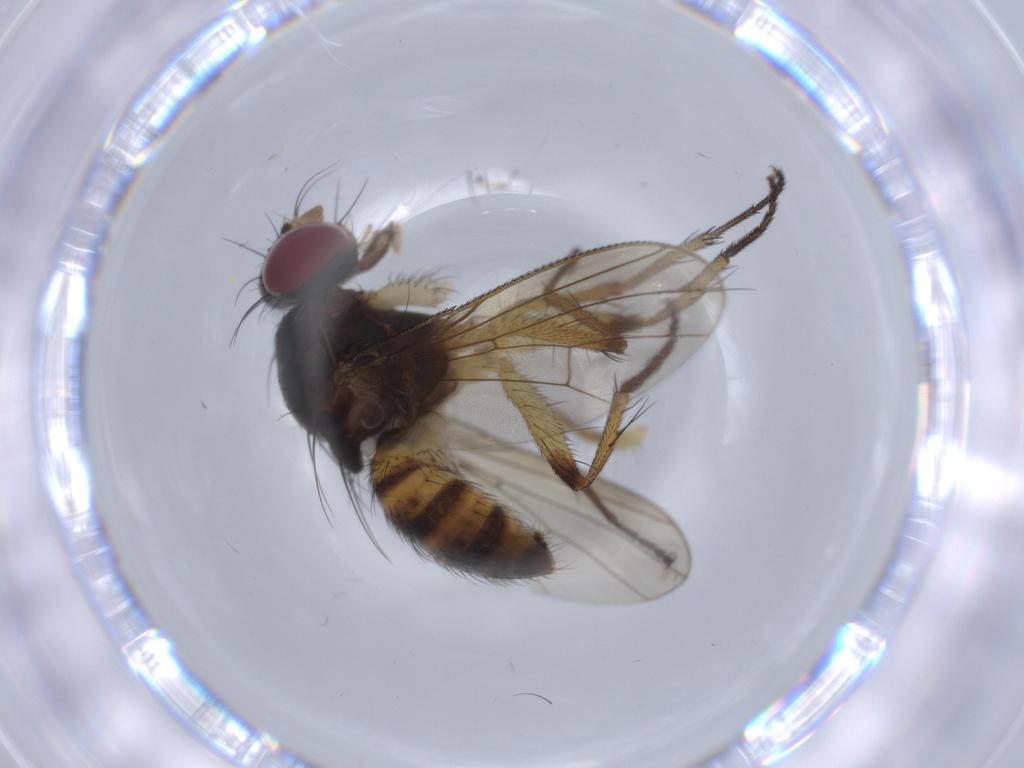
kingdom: Animalia
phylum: Arthropoda
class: Insecta
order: Diptera
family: Muscidae
